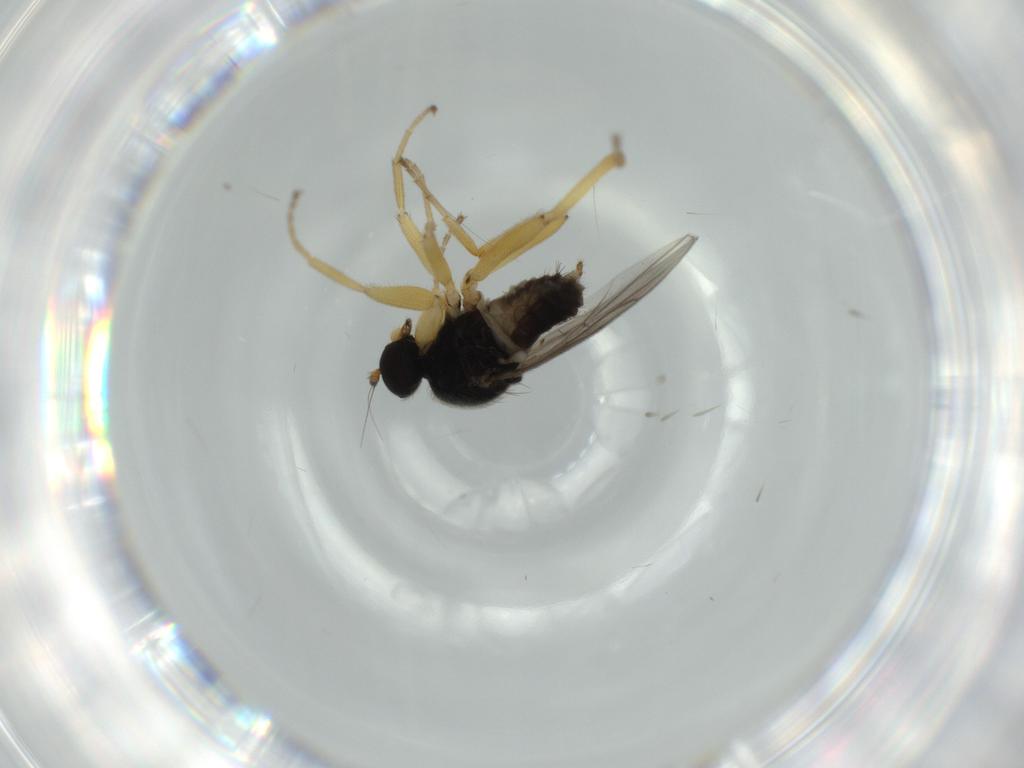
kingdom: Animalia
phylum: Arthropoda
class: Insecta
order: Diptera
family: Hybotidae
